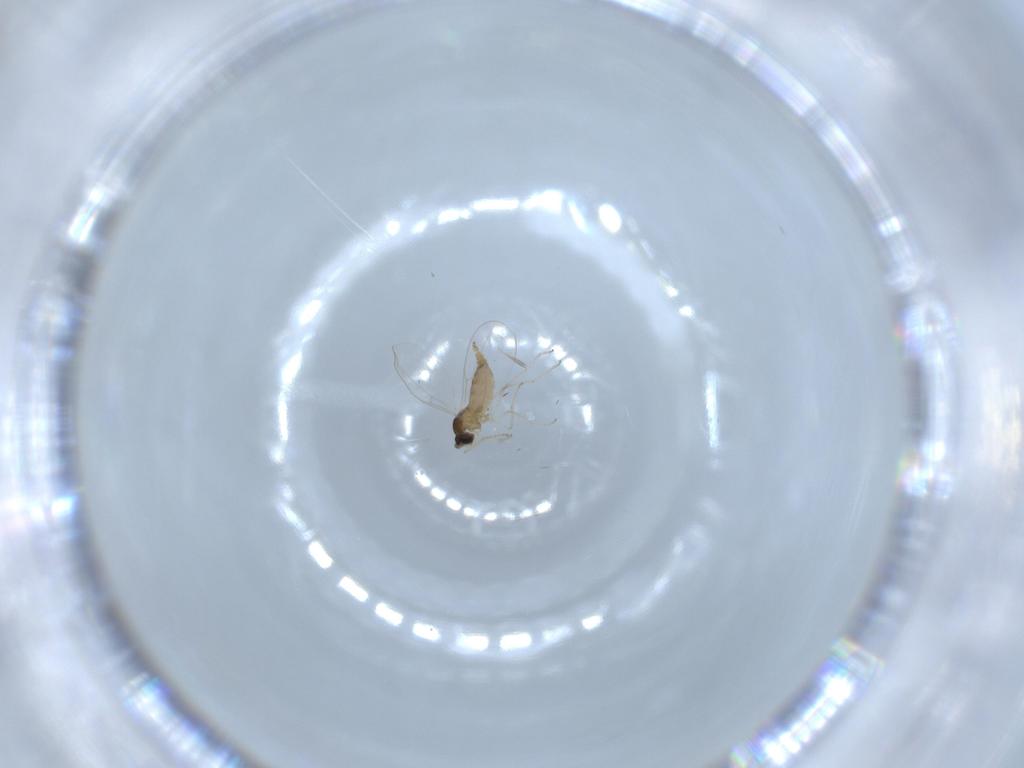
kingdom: Animalia
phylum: Arthropoda
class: Insecta
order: Diptera
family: Cecidomyiidae
